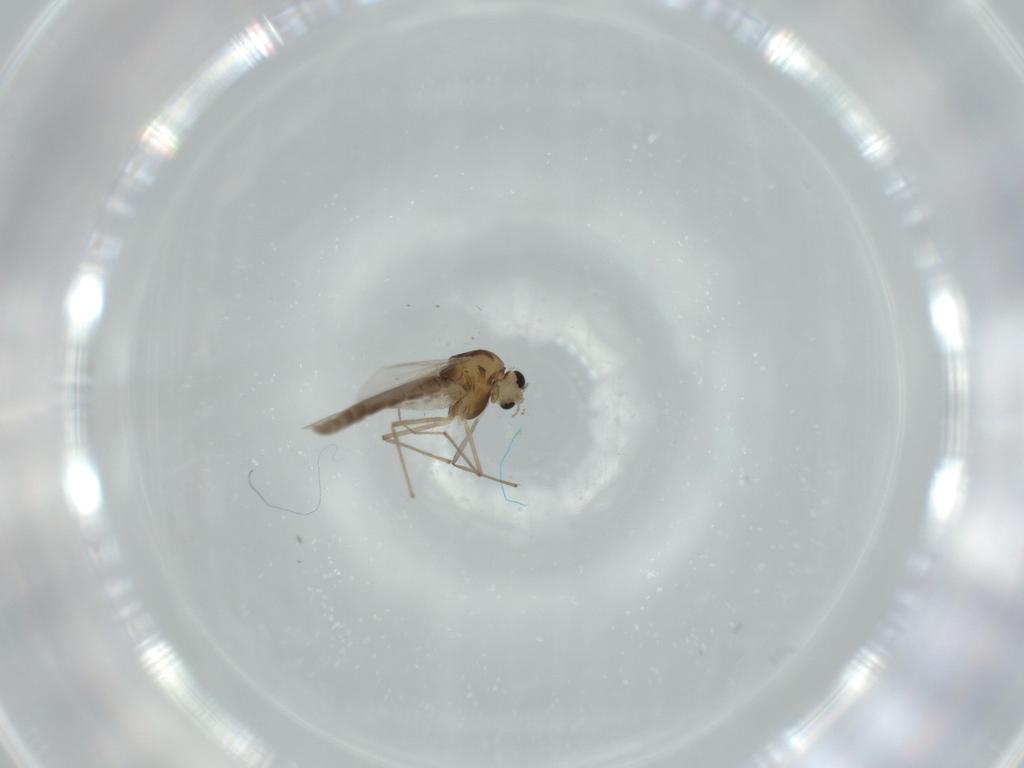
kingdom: Animalia
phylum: Arthropoda
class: Insecta
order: Diptera
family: Chironomidae
